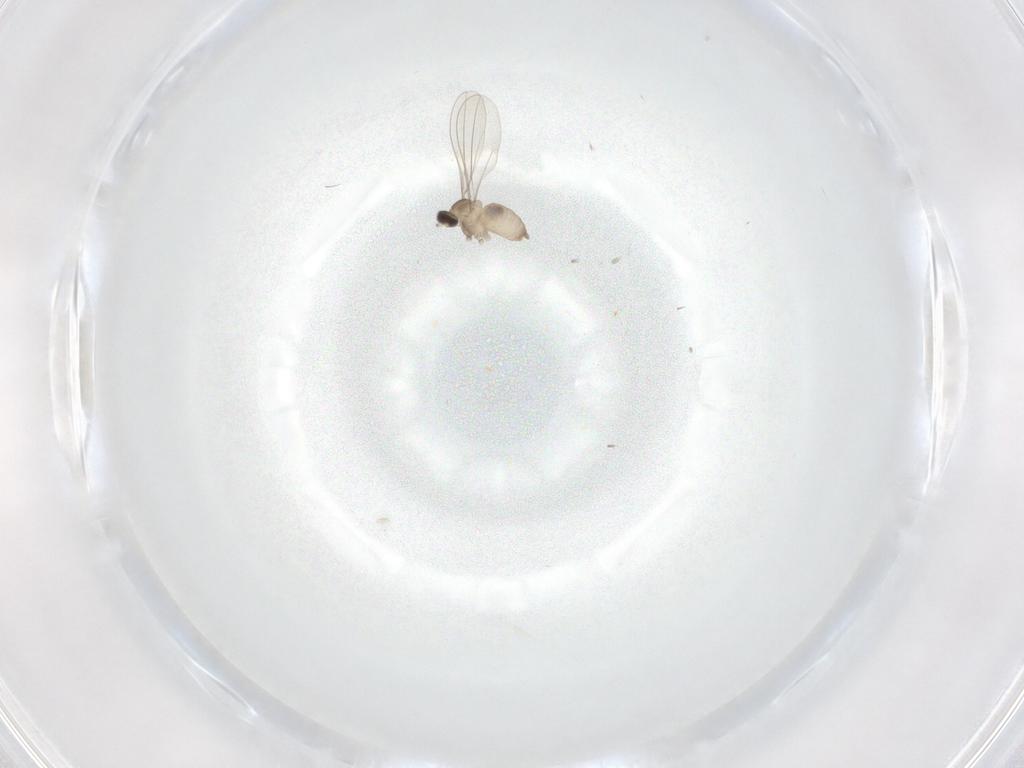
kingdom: Animalia
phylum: Arthropoda
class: Insecta
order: Diptera
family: Cecidomyiidae
